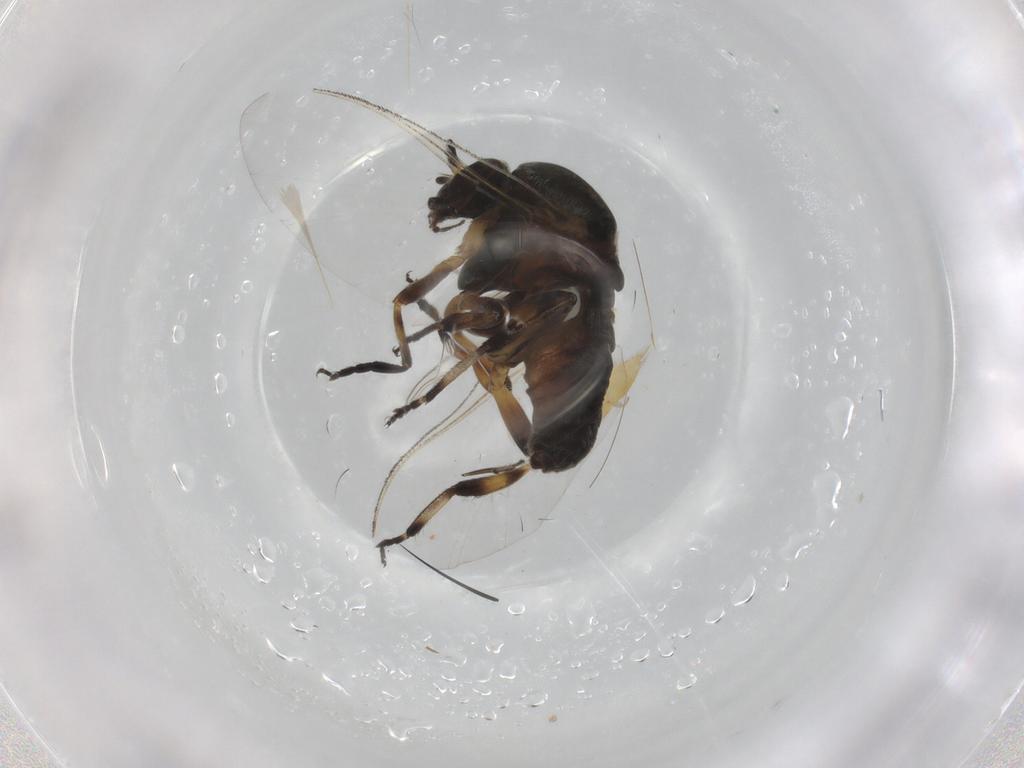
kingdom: Animalia
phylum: Arthropoda
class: Insecta
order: Diptera
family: Phoridae
